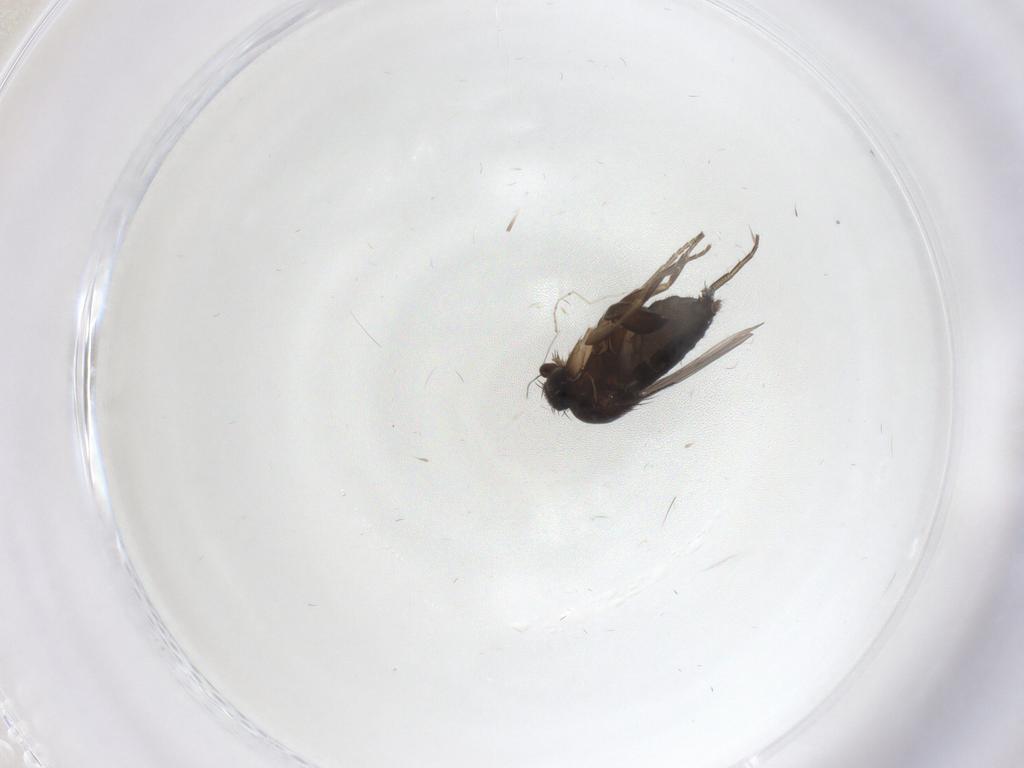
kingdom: Animalia
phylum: Arthropoda
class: Insecta
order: Diptera
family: Phoridae
